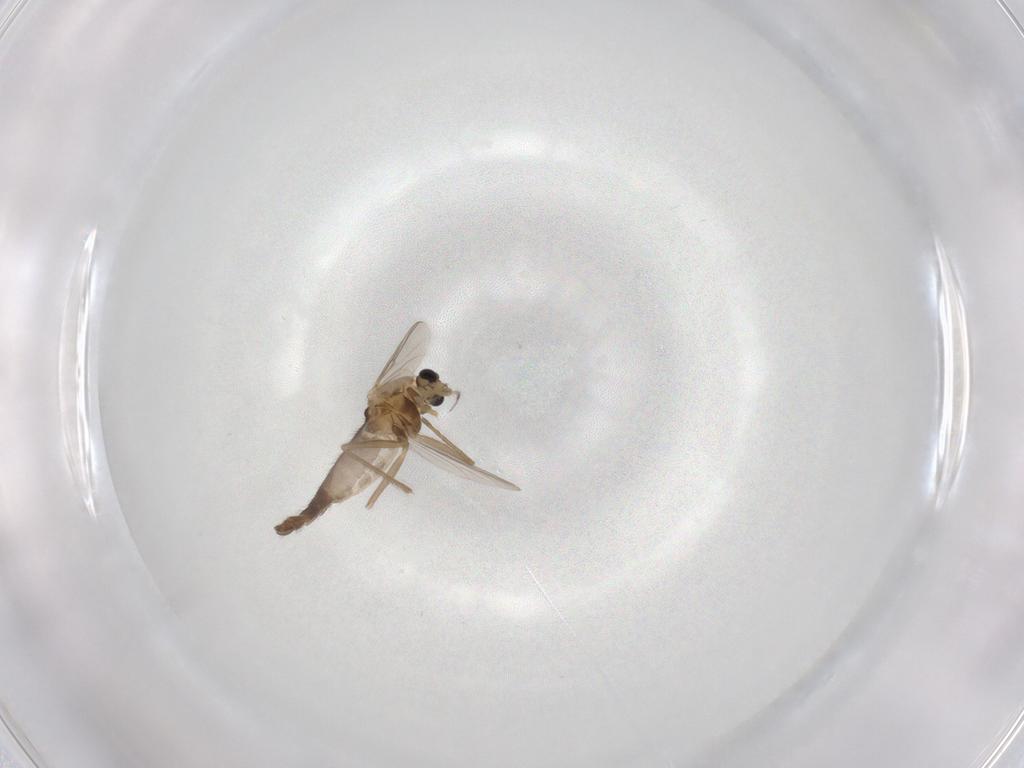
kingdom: Animalia
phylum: Arthropoda
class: Insecta
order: Diptera
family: Chironomidae
